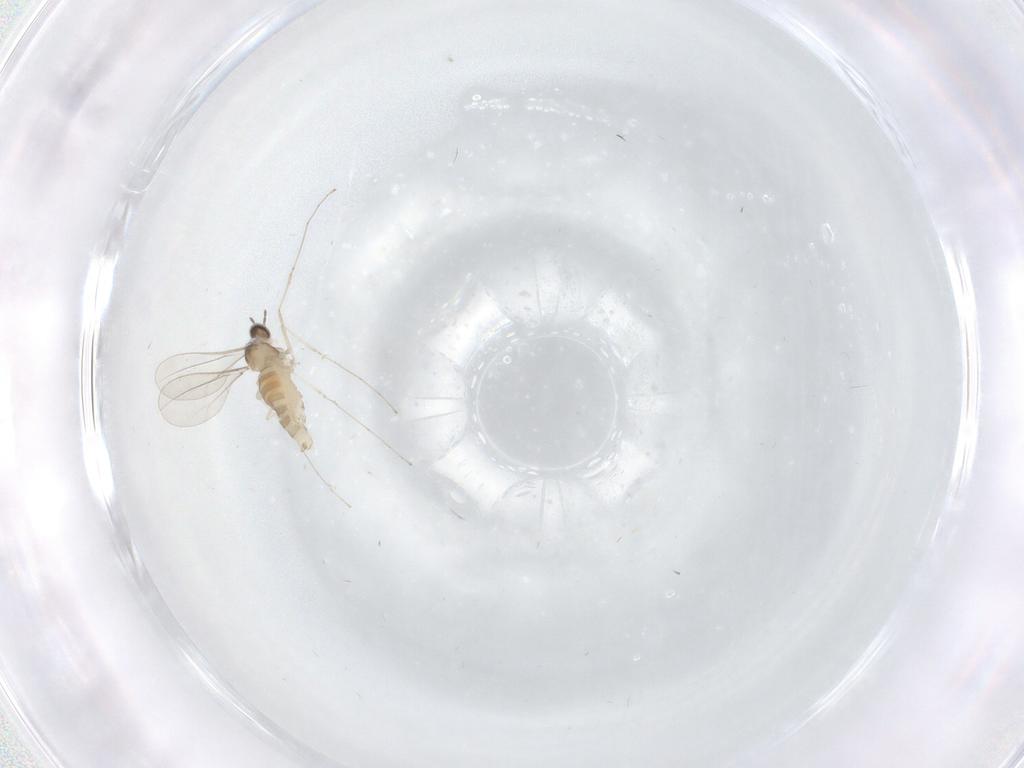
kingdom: Animalia
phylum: Arthropoda
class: Insecta
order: Diptera
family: Cecidomyiidae
